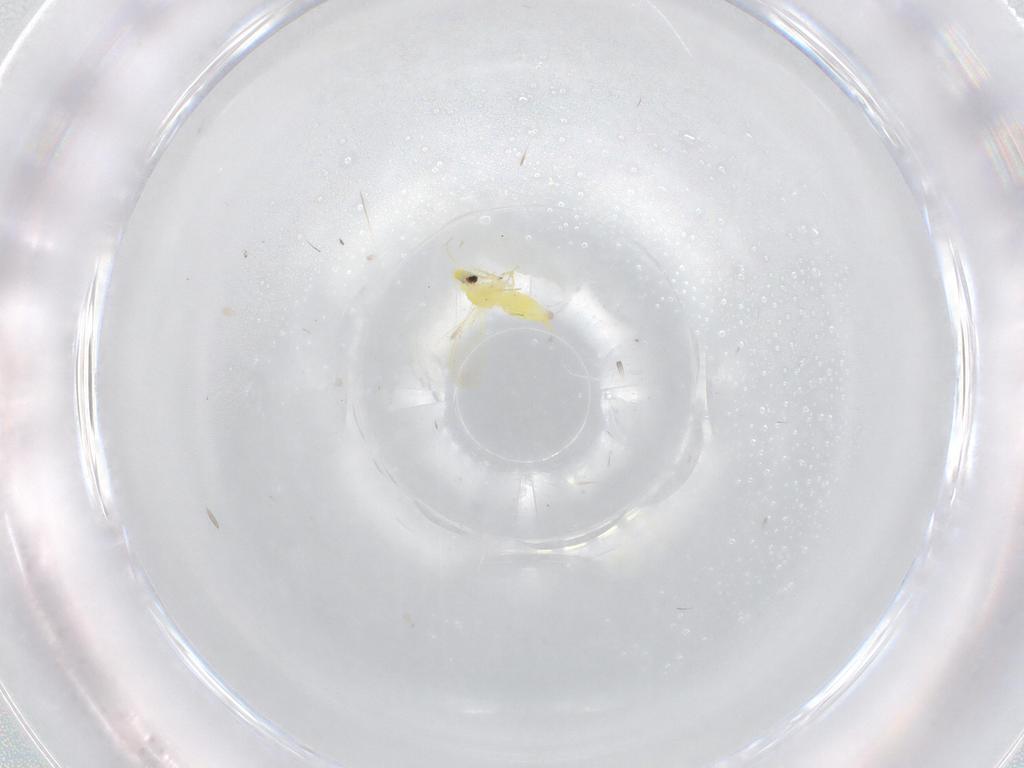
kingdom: Animalia
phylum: Arthropoda
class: Insecta
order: Hemiptera
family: Aleyrodidae
